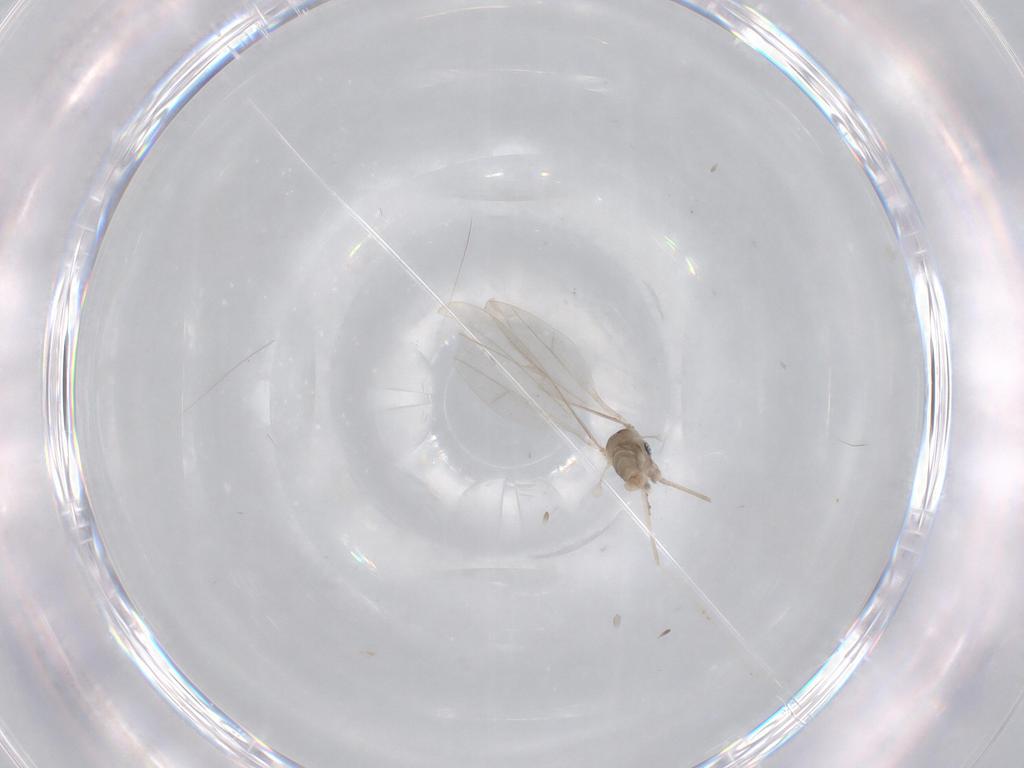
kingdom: Animalia
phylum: Arthropoda
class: Insecta
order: Diptera
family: Cecidomyiidae
